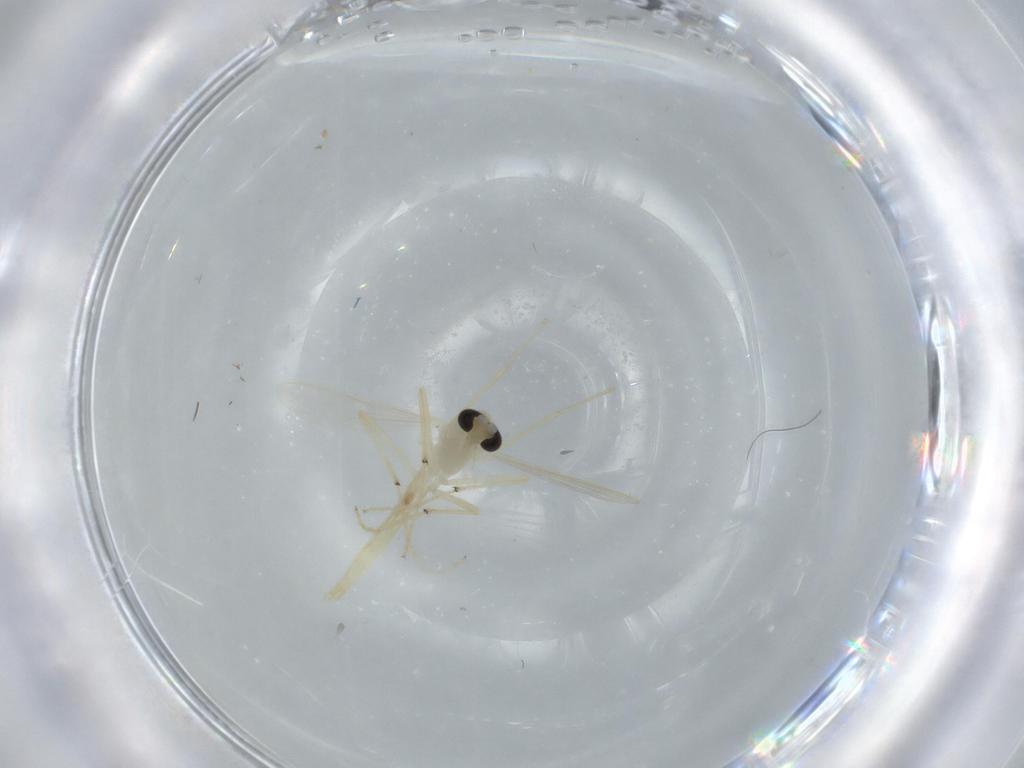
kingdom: Animalia
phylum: Arthropoda
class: Insecta
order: Diptera
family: Chironomidae
